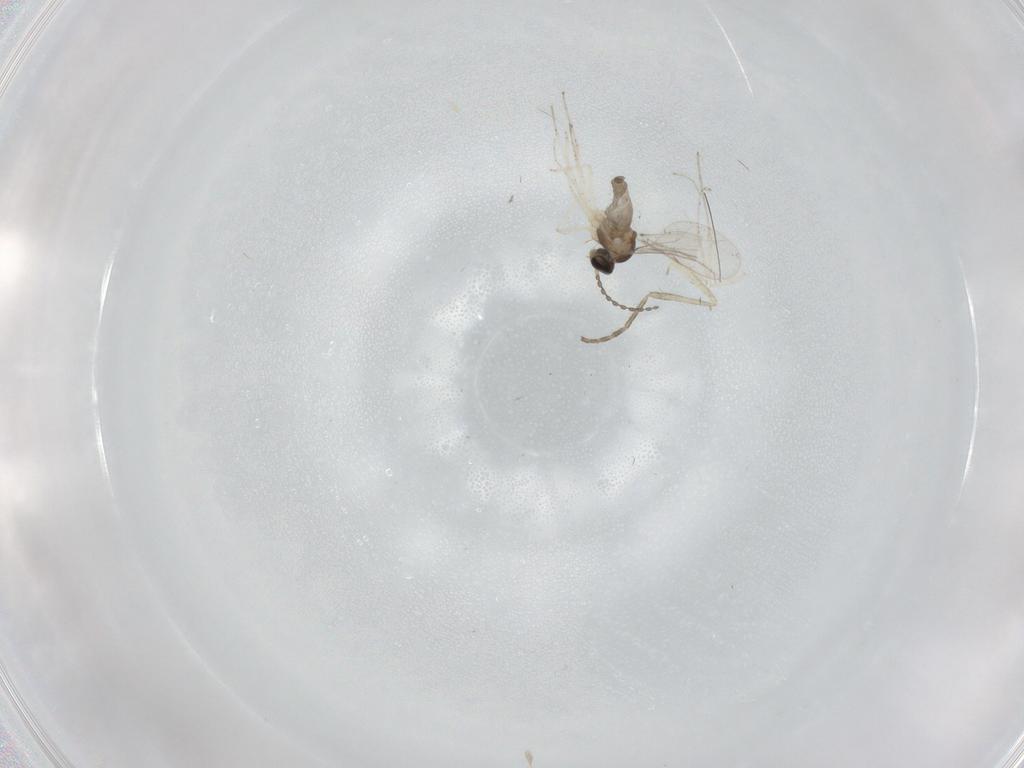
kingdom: Animalia
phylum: Arthropoda
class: Insecta
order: Diptera
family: Cecidomyiidae
